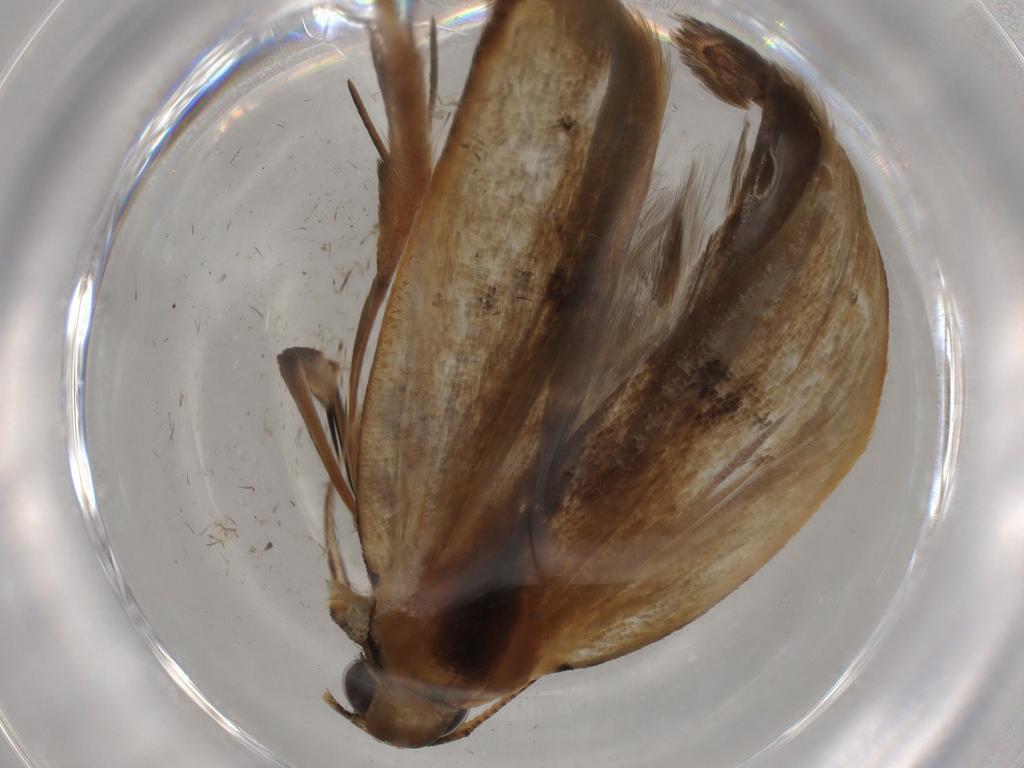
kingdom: Animalia
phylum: Arthropoda
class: Insecta
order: Lepidoptera
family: Gelechiidae
